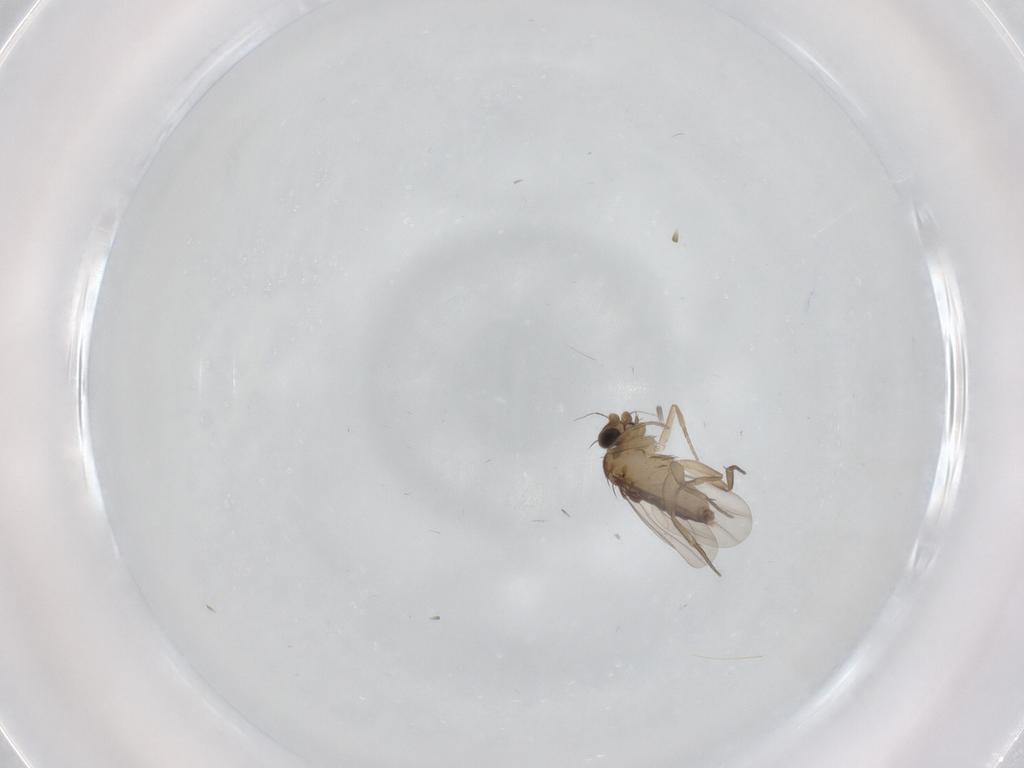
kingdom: Animalia
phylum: Arthropoda
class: Insecta
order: Diptera
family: Phoridae
